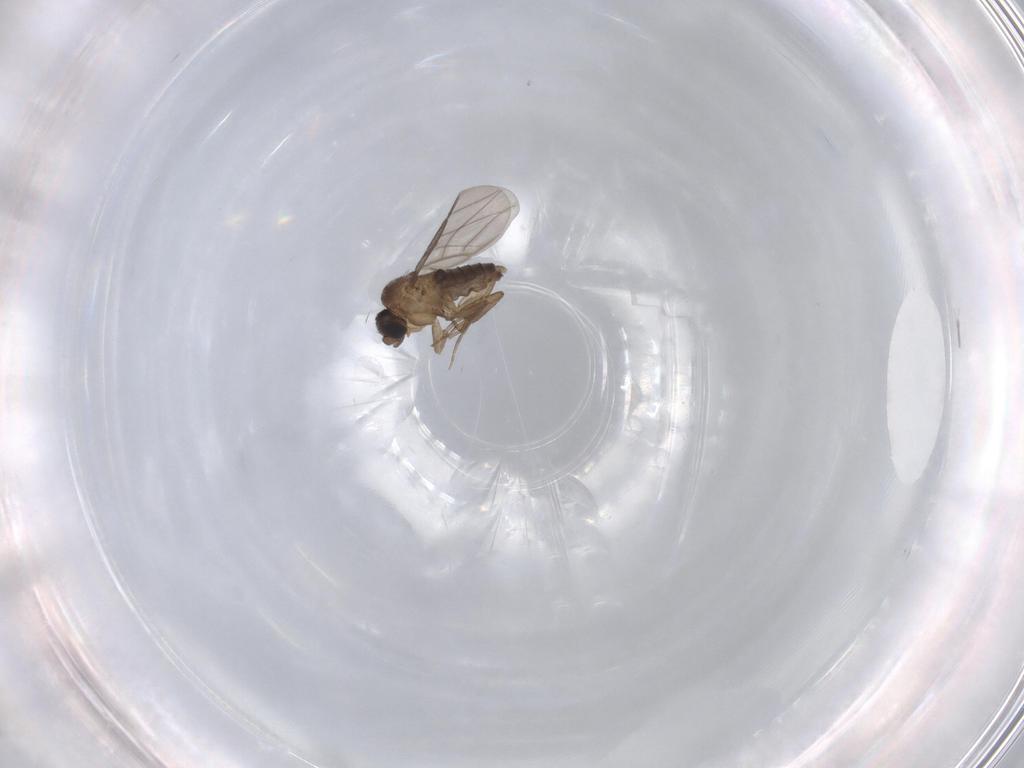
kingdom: Animalia
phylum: Arthropoda
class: Insecta
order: Diptera
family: Phoridae
